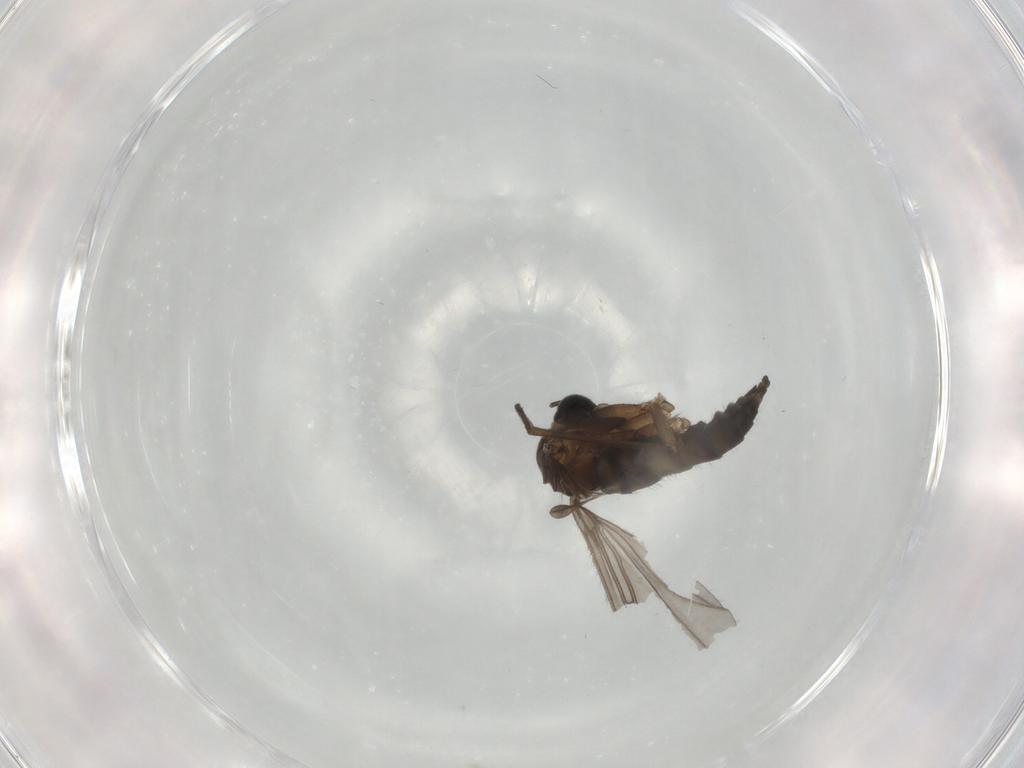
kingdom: Animalia
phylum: Arthropoda
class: Insecta
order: Diptera
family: Sciaridae
